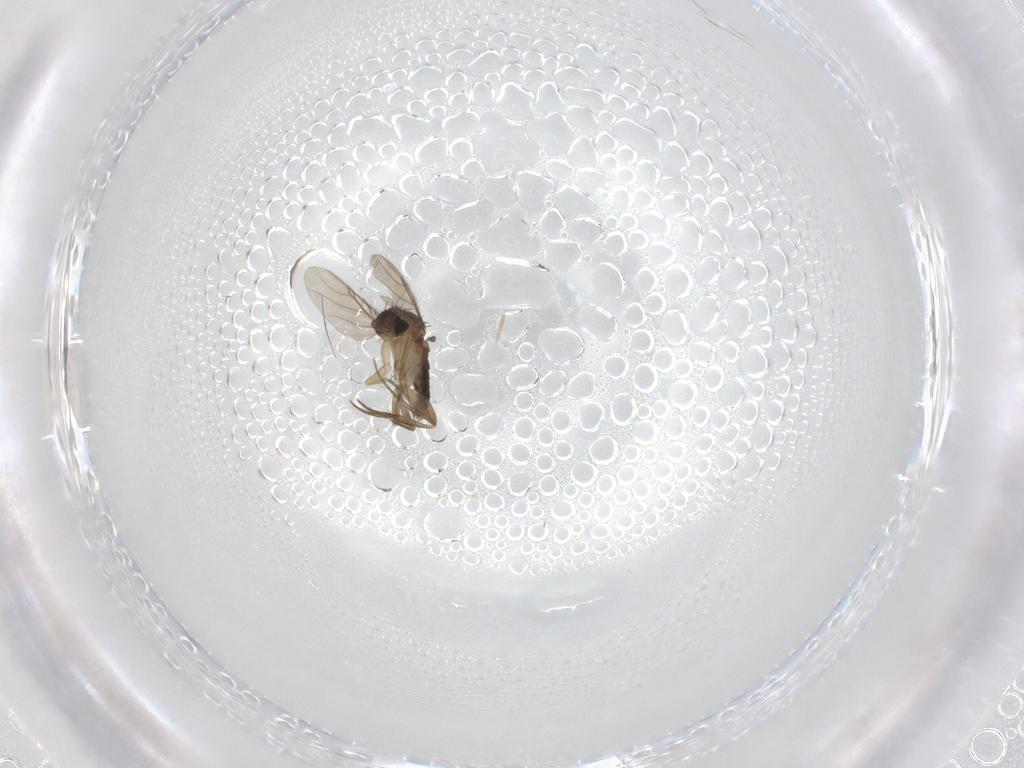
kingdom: Animalia
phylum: Arthropoda
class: Insecta
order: Diptera
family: Phoridae
